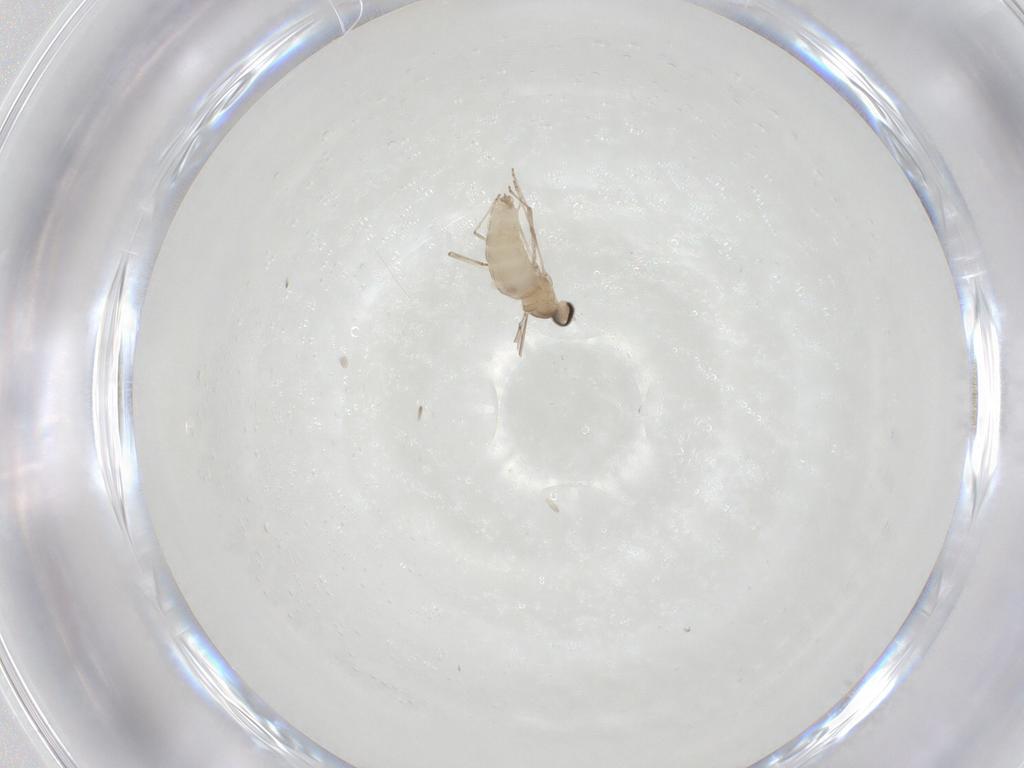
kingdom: Animalia
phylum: Arthropoda
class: Insecta
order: Diptera
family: Cecidomyiidae
